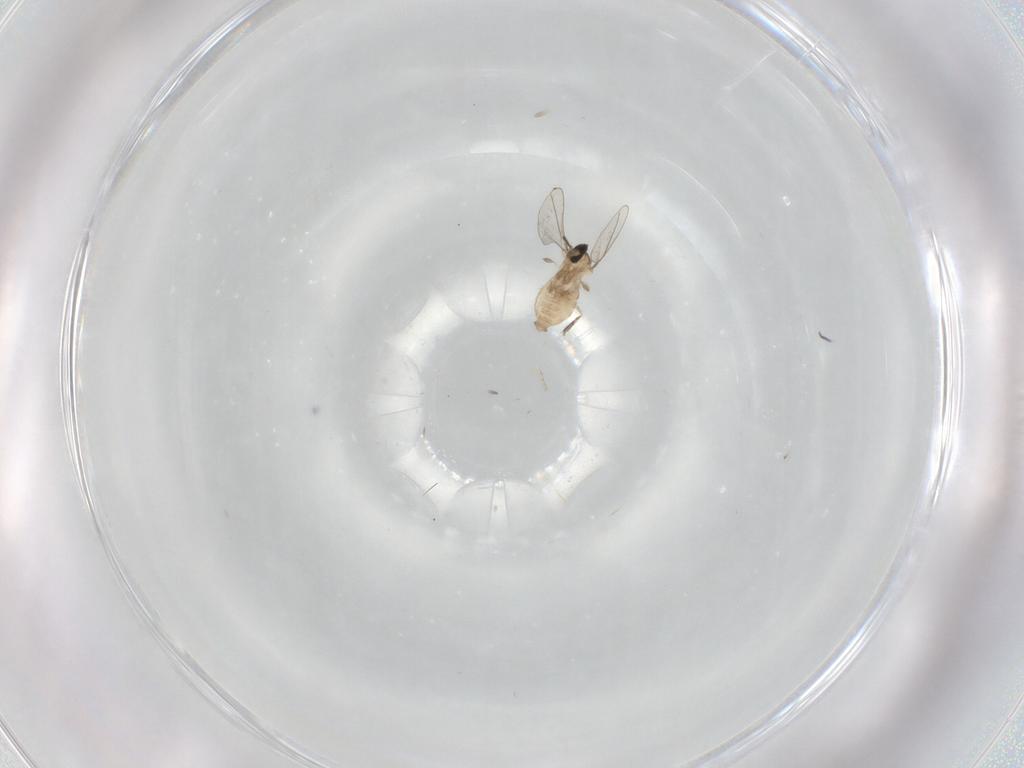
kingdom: Animalia
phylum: Arthropoda
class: Insecta
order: Diptera
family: Cecidomyiidae
